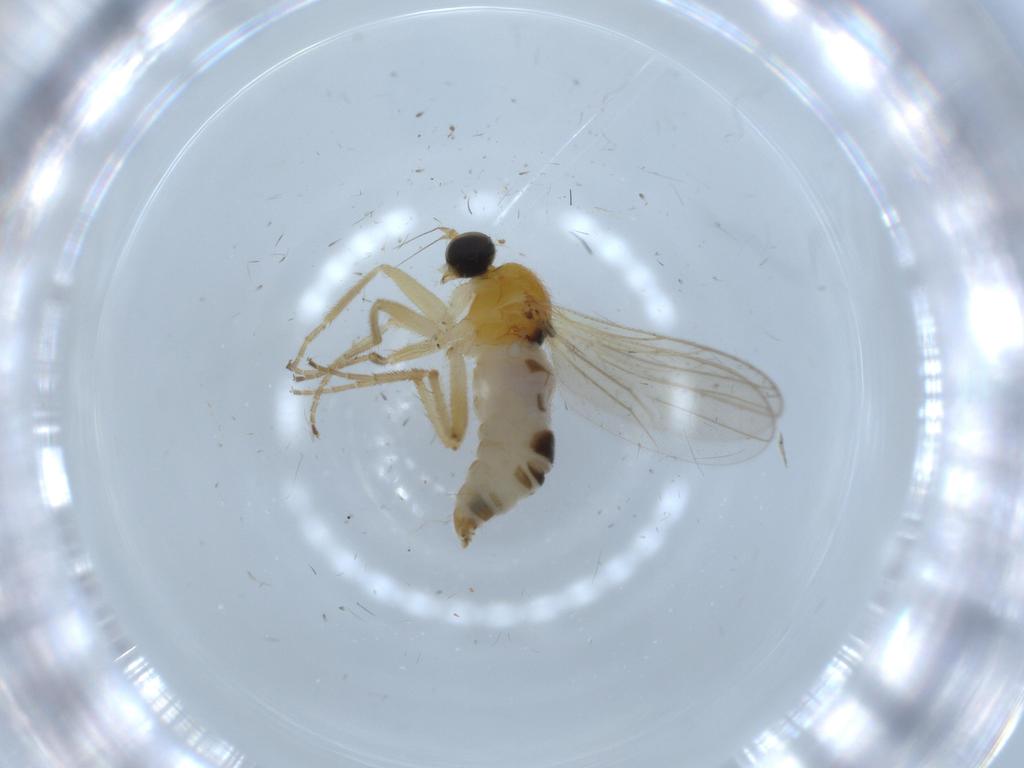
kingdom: Animalia
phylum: Arthropoda
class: Insecta
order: Diptera
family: Hybotidae
